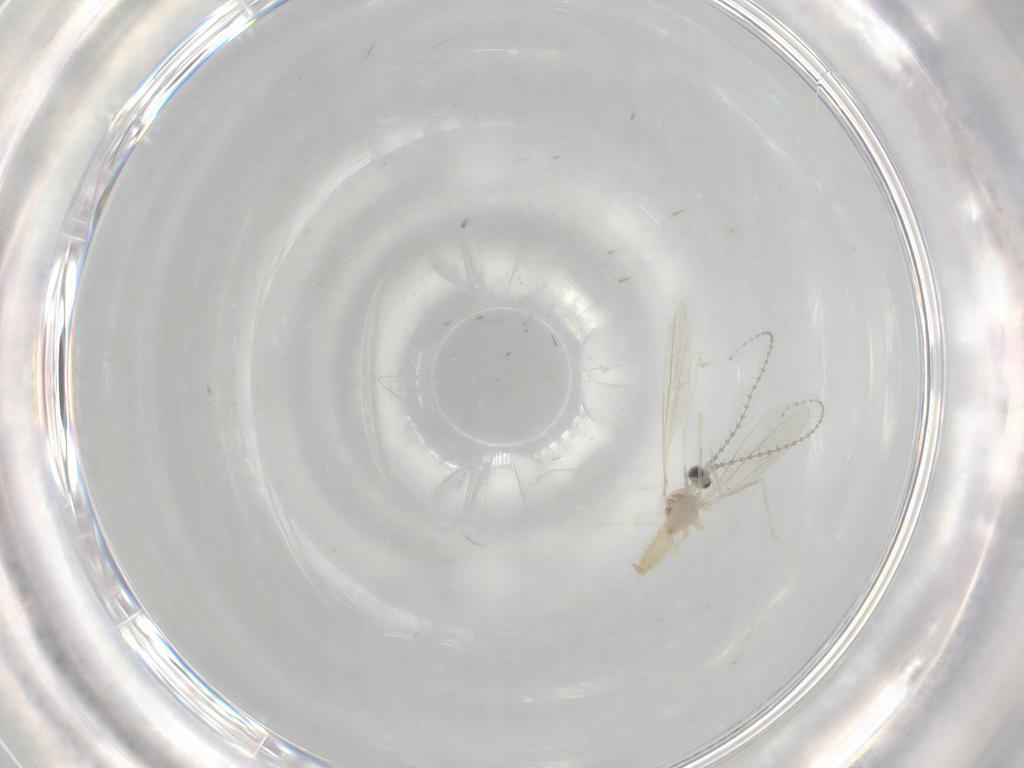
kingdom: Animalia
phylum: Arthropoda
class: Insecta
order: Diptera
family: Cecidomyiidae
